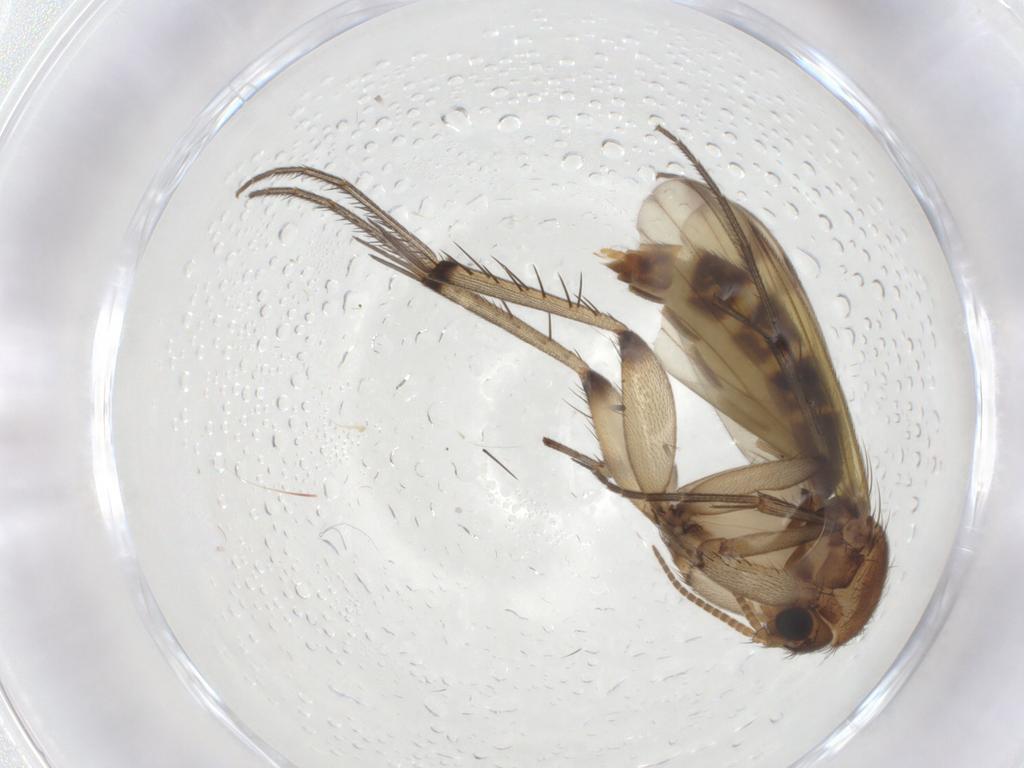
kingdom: Animalia
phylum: Arthropoda
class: Insecta
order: Diptera
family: Mycetophilidae
